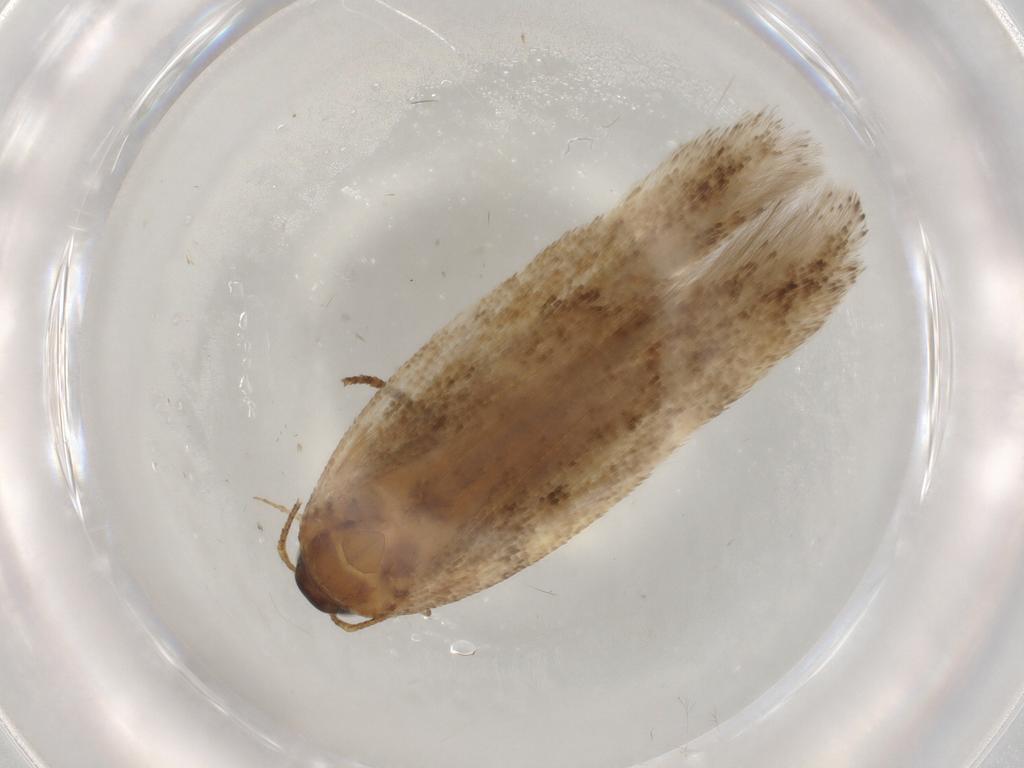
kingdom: Animalia
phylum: Arthropoda
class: Insecta
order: Lepidoptera
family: Gelechiidae
